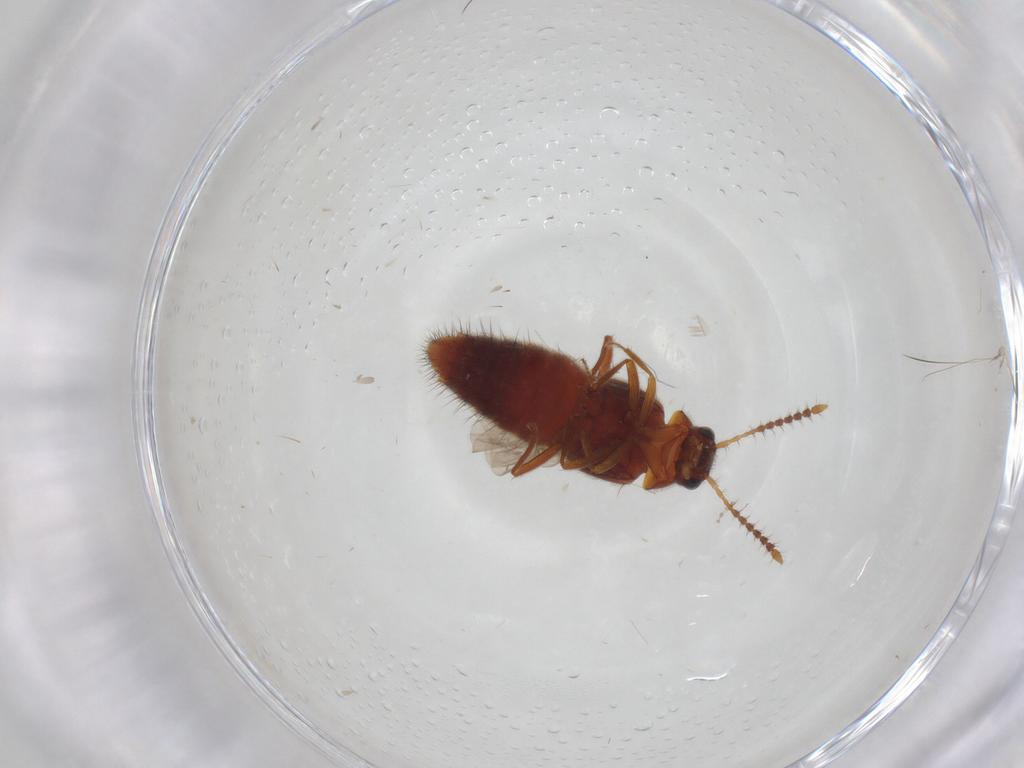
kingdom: Animalia
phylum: Arthropoda
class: Insecta
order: Coleoptera
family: Staphylinidae
